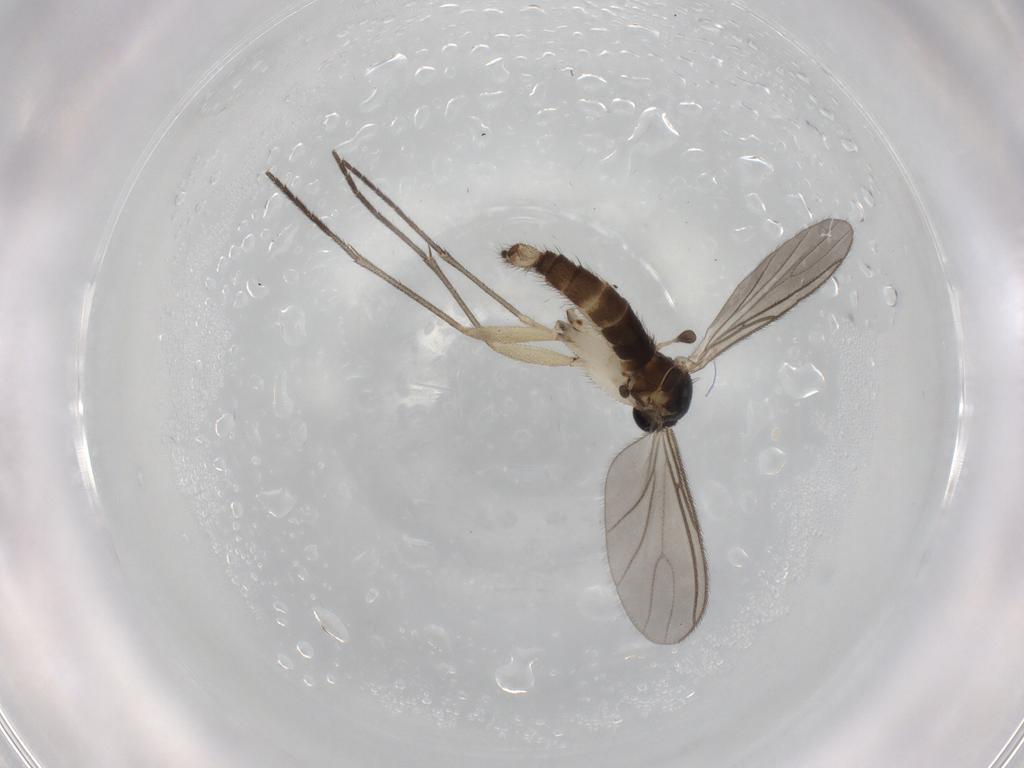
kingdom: Animalia
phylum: Arthropoda
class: Insecta
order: Diptera
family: Sciaridae
